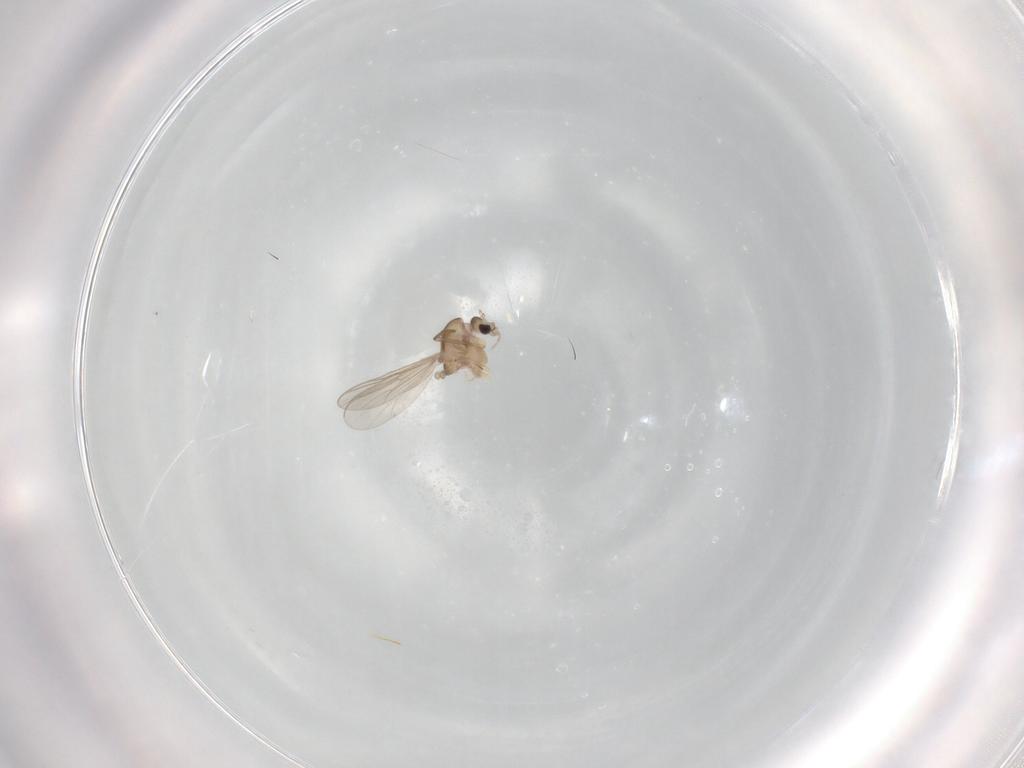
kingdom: Animalia
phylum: Arthropoda
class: Insecta
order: Diptera
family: Chironomidae
